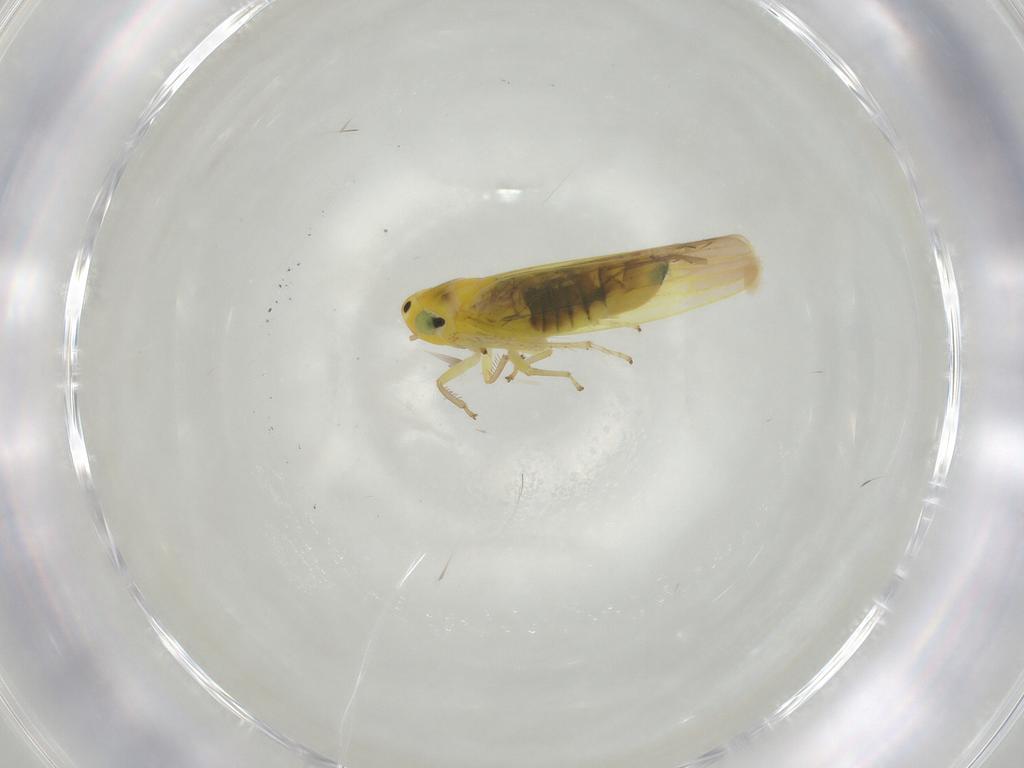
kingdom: Animalia
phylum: Arthropoda
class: Insecta
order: Hemiptera
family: Cicadellidae
